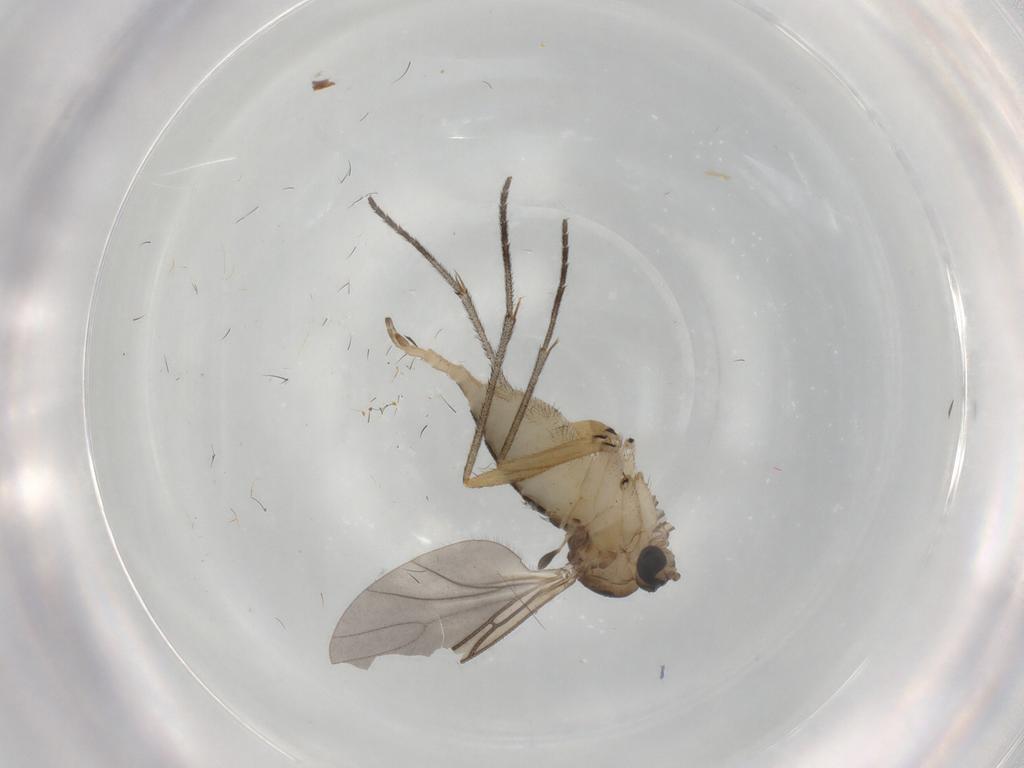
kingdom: Animalia
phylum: Arthropoda
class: Insecta
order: Diptera
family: Sciaridae
